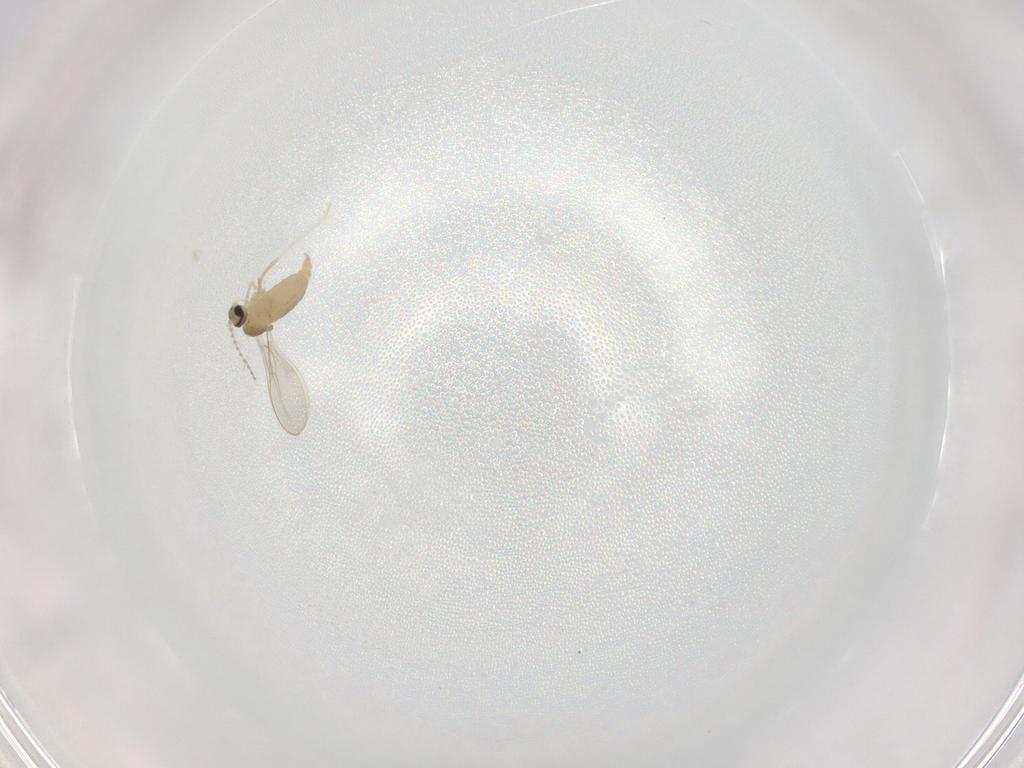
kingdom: Animalia
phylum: Arthropoda
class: Insecta
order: Diptera
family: Cecidomyiidae
